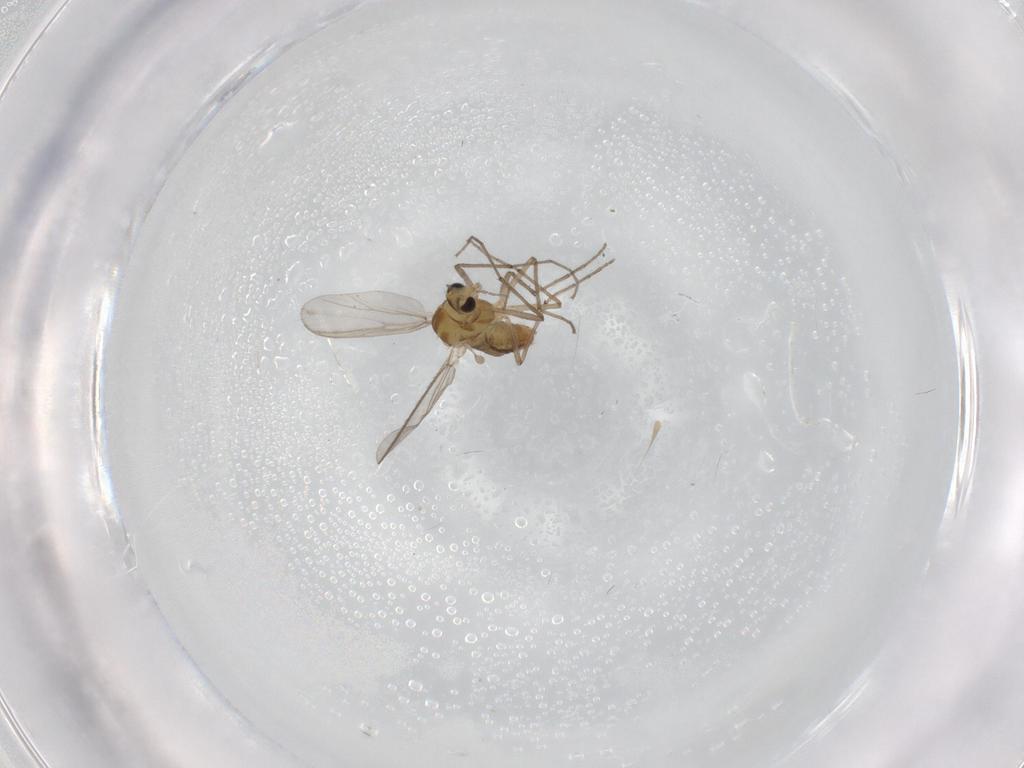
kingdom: Animalia
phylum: Arthropoda
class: Insecta
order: Diptera
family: Chironomidae
